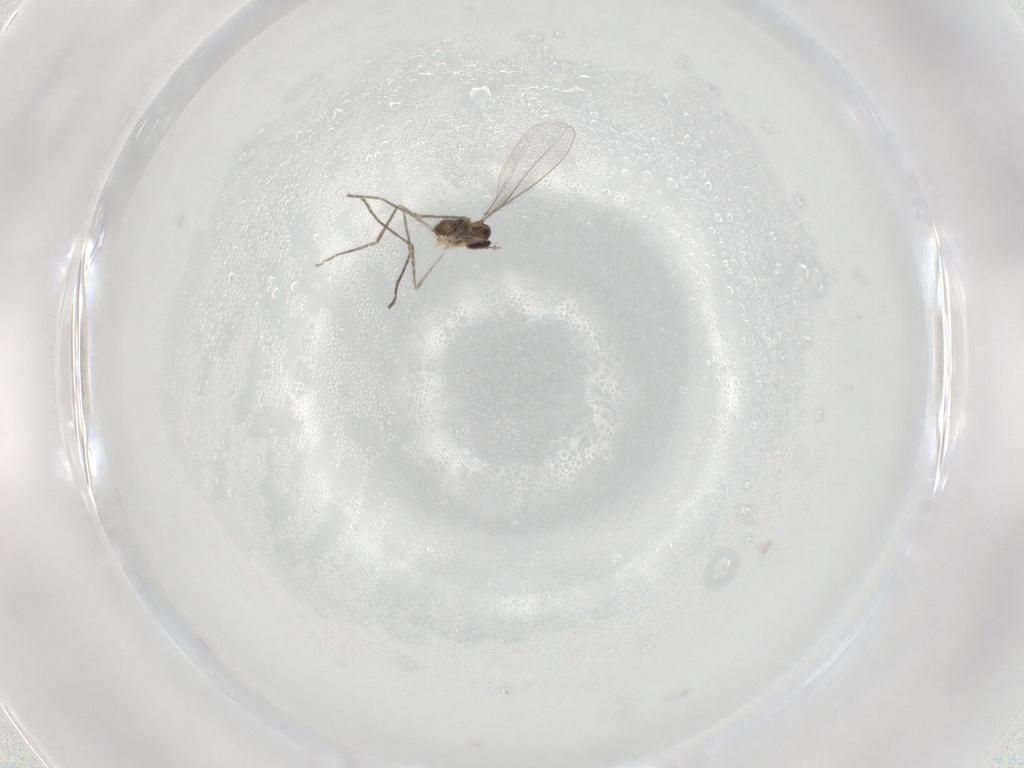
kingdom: Animalia
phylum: Arthropoda
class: Insecta
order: Diptera
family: Cecidomyiidae
